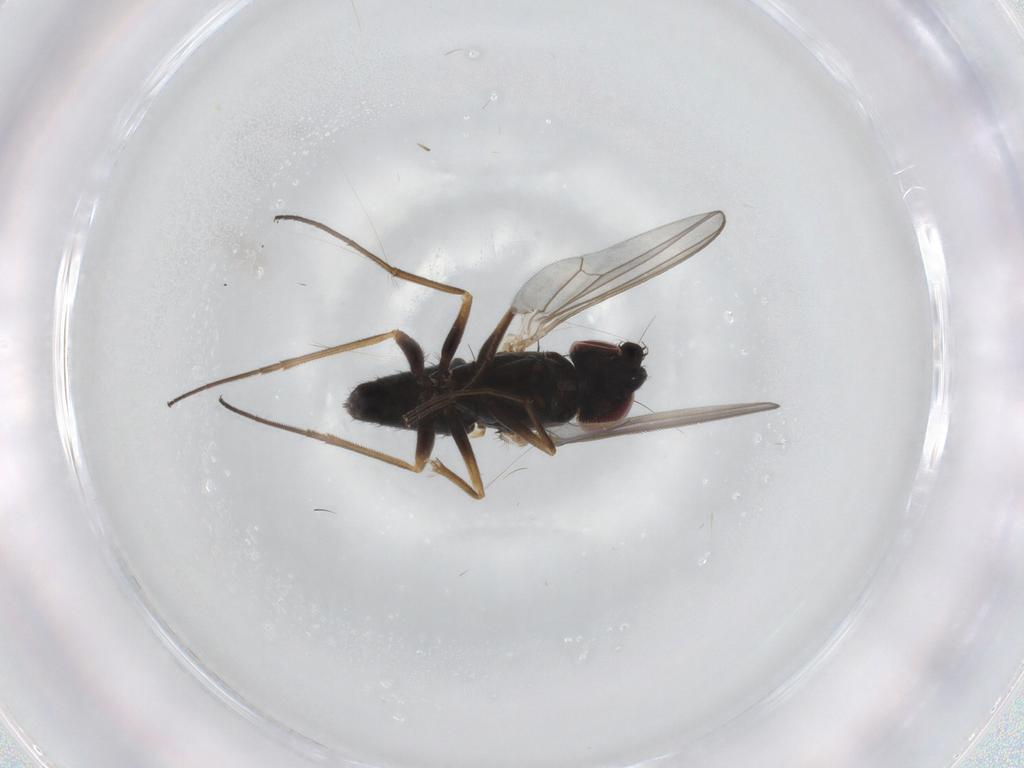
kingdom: Animalia
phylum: Arthropoda
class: Insecta
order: Diptera
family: Dolichopodidae
